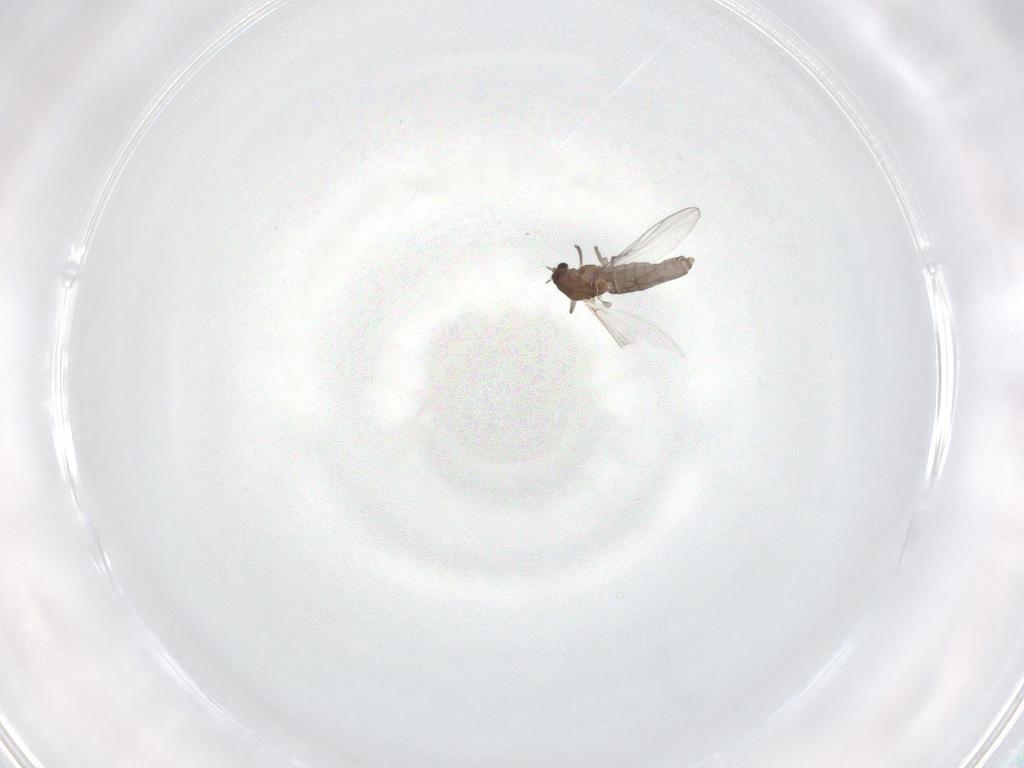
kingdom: Animalia
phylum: Arthropoda
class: Insecta
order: Diptera
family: Chironomidae
